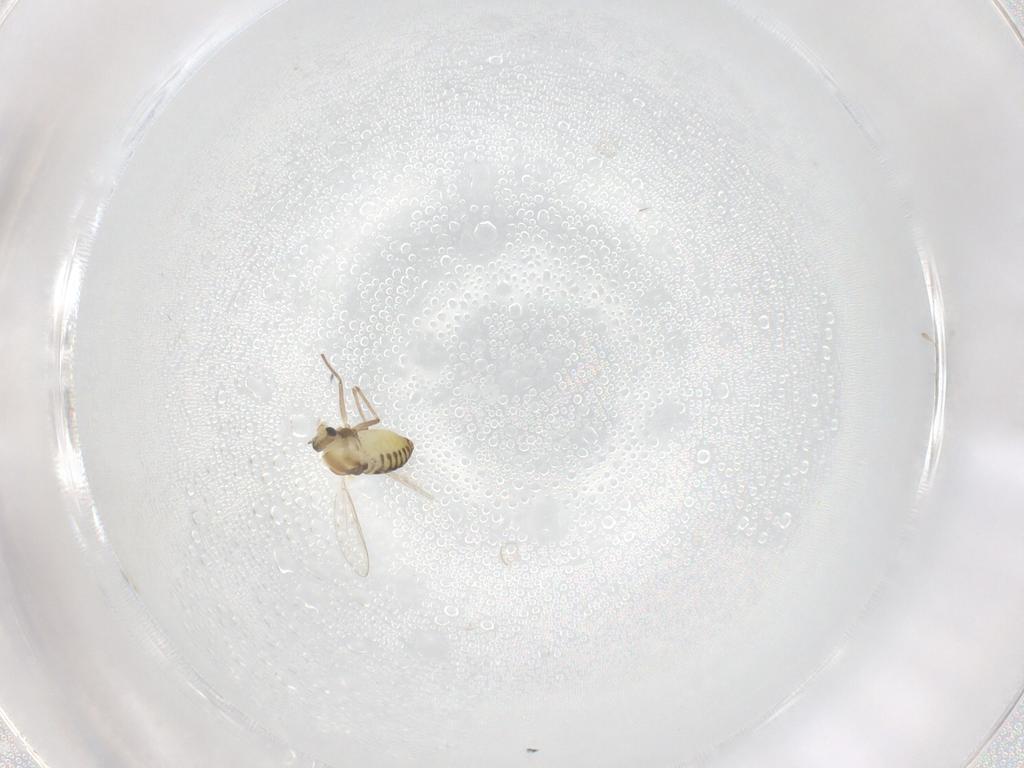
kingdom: Animalia
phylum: Arthropoda
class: Insecta
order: Diptera
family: Chironomidae
